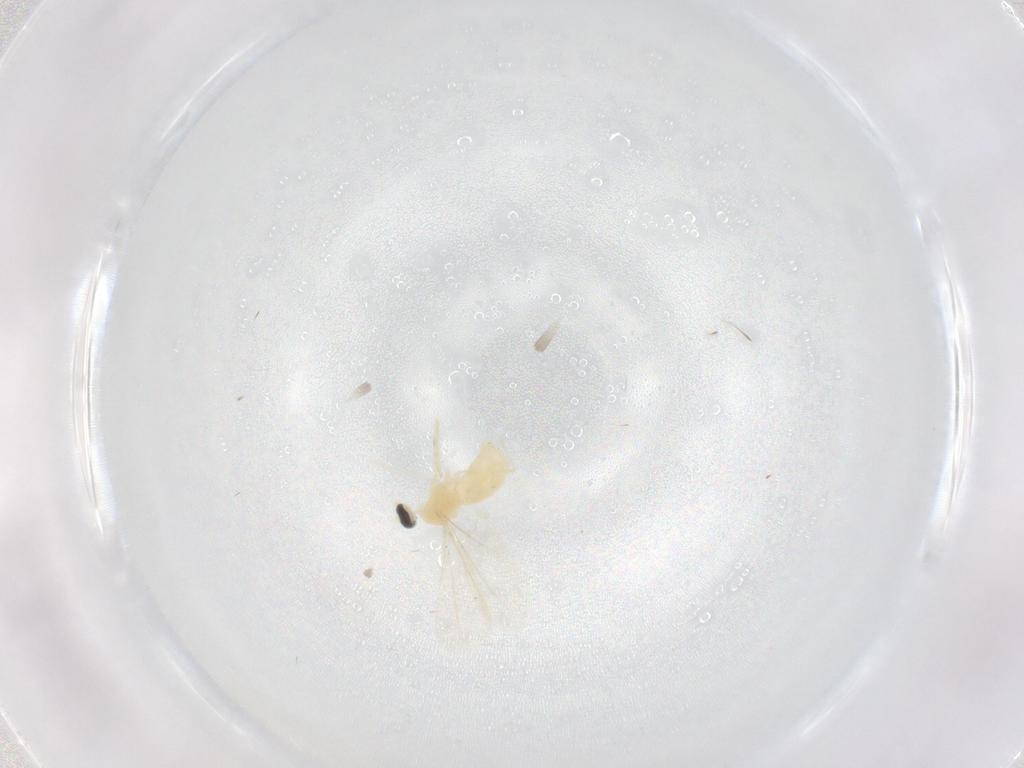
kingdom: Animalia
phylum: Arthropoda
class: Insecta
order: Diptera
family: Cecidomyiidae
